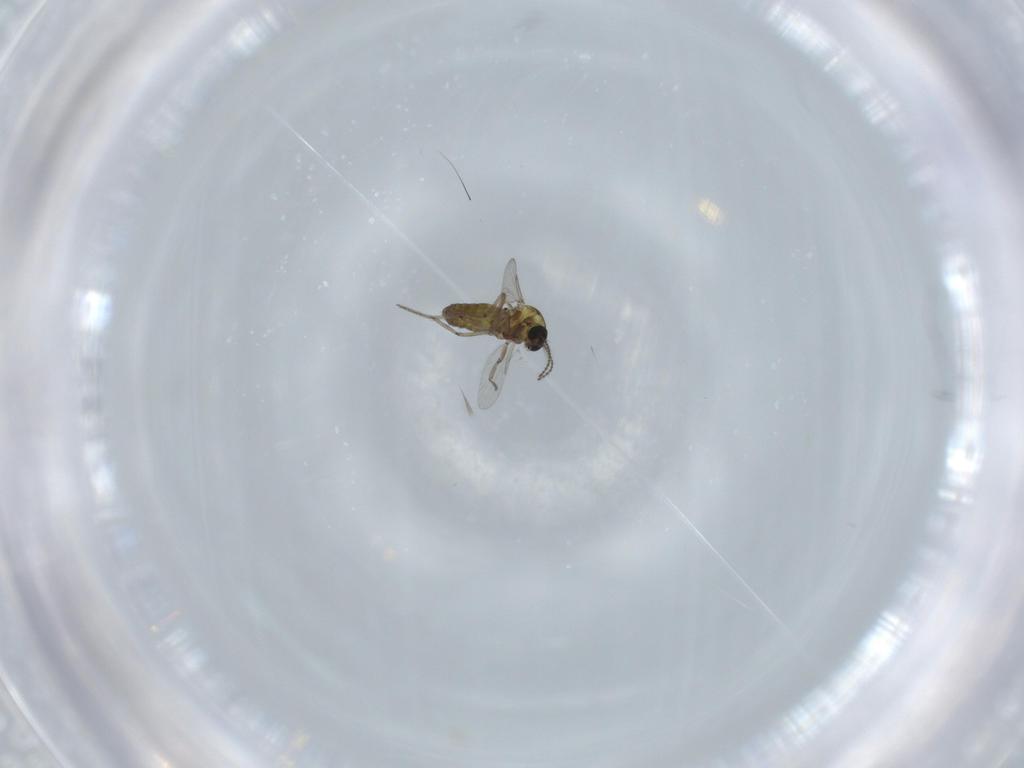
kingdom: Animalia
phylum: Arthropoda
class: Insecta
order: Diptera
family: Ceratopogonidae
